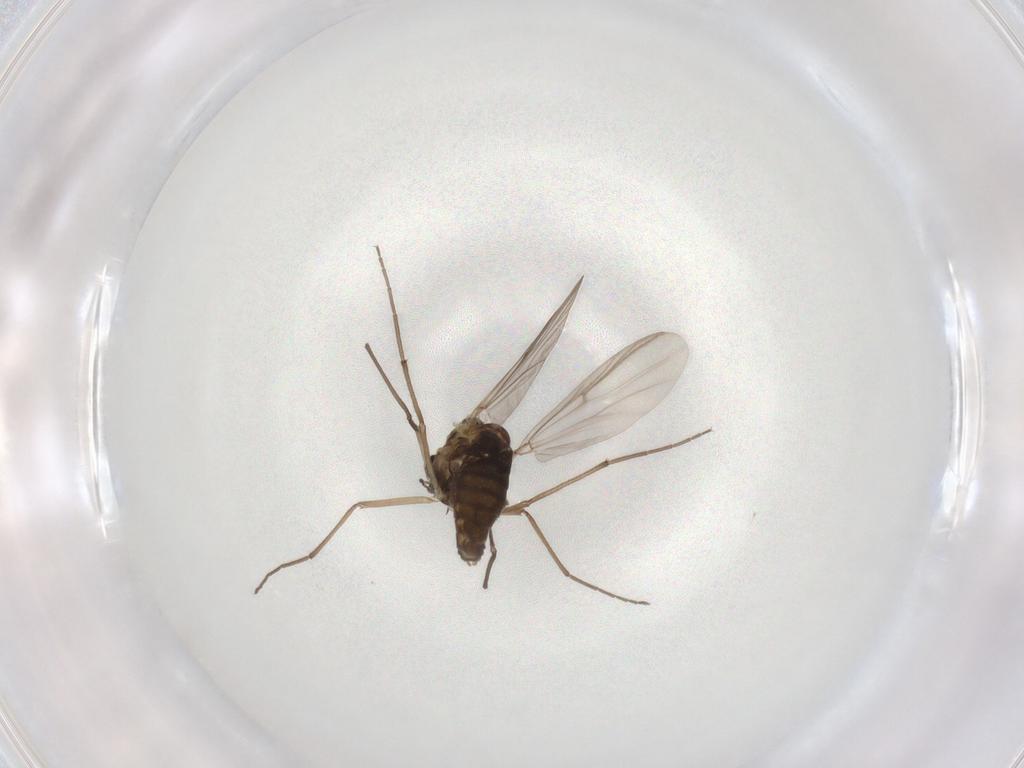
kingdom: Animalia
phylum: Arthropoda
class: Insecta
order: Diptera
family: Chironomidae
